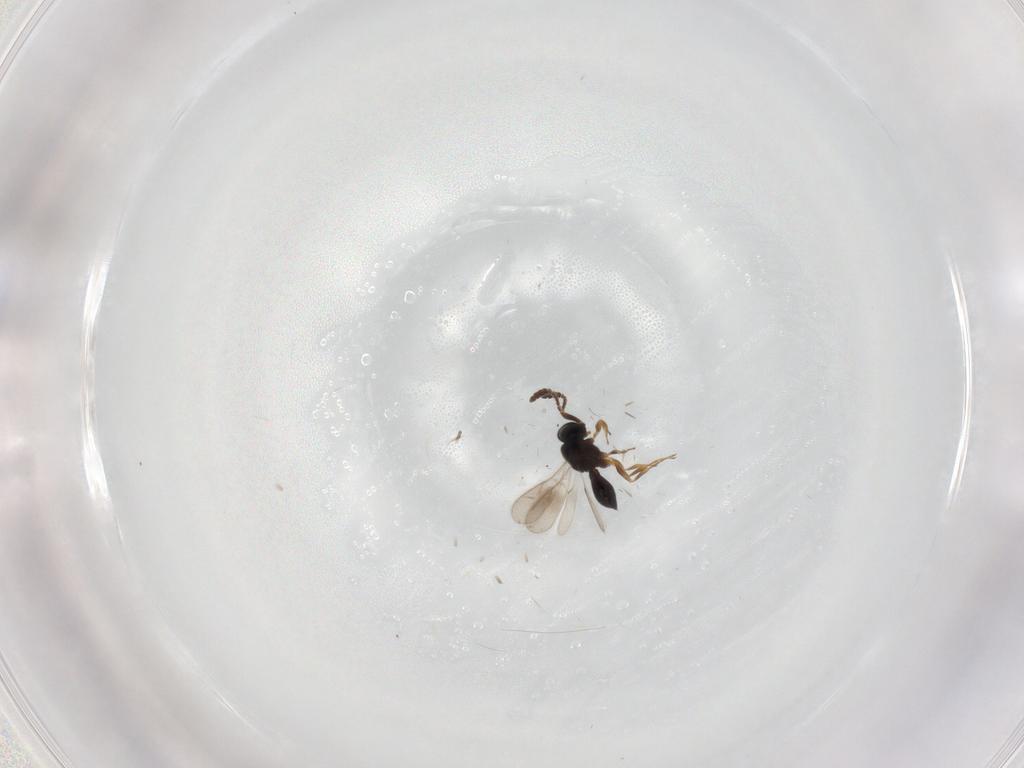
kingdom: Animalia
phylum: Arthropoda
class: Insecta
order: Hymenoptera
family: Scelionidae
